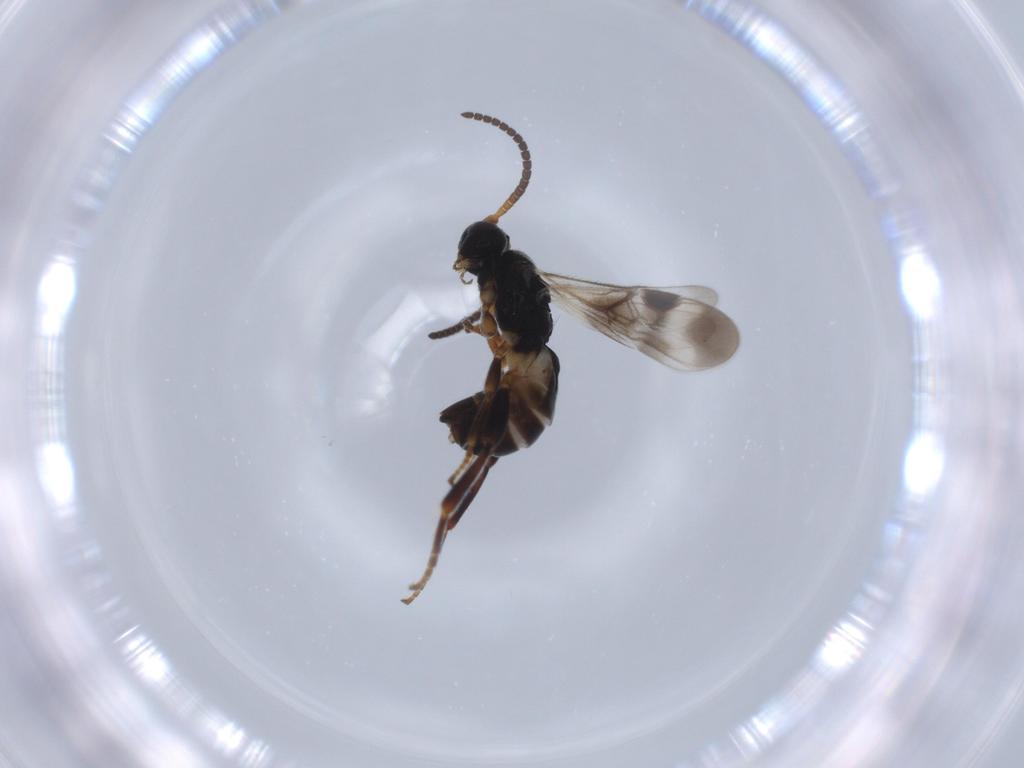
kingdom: Animalia
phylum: Arthropoda
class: Insecta
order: Hymenoptera
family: Braconidae
